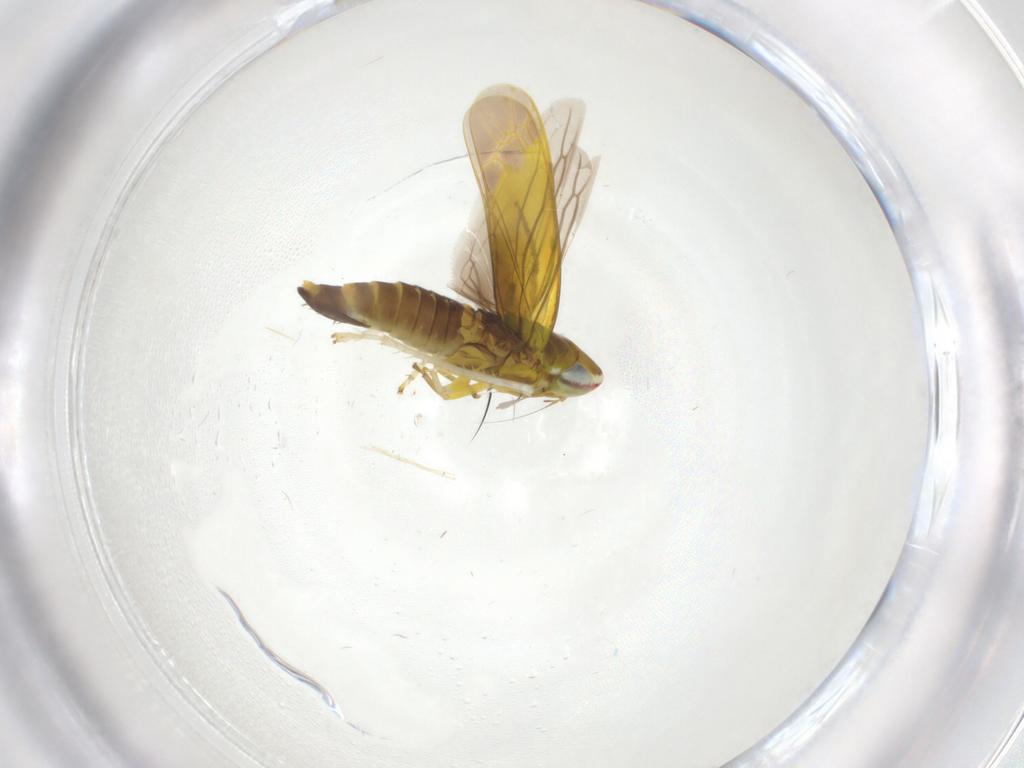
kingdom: Animalia
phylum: Arthropoda
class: Insecta
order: Hemiptera
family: Cicadellidae
